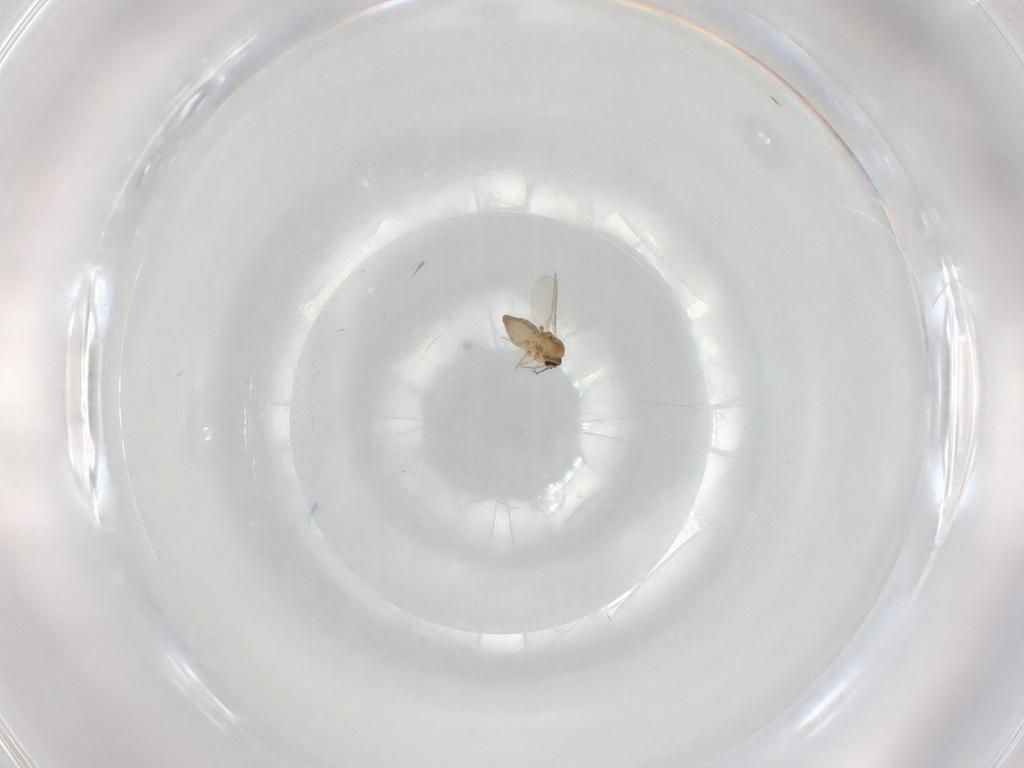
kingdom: Animalia
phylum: Arthropoda
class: Insecta
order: Diptera
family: Ceratopogonidae
